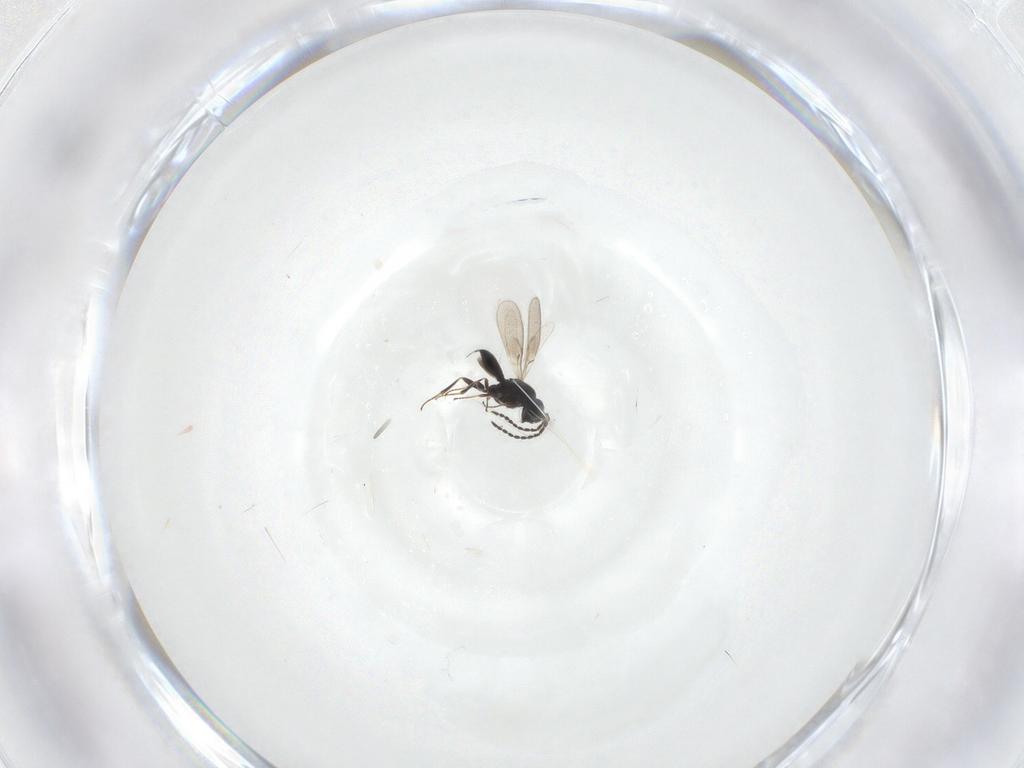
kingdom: Animalia
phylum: Arthropoda
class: Insecta
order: Hymenoptera
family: Scelionidae
